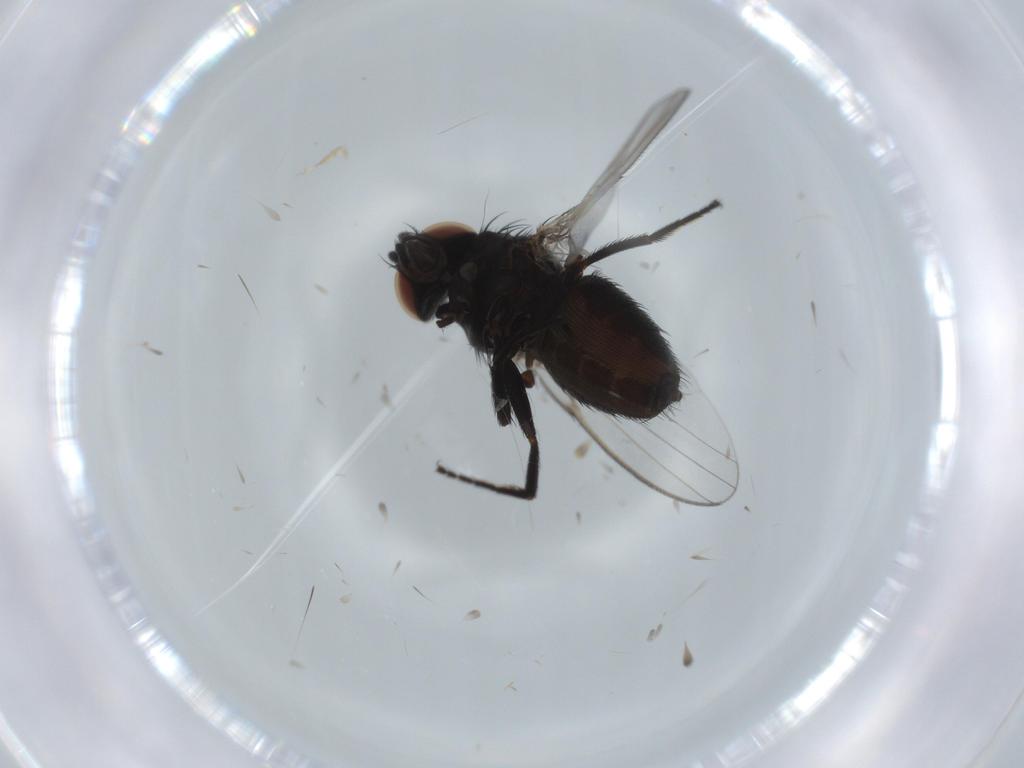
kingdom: Animalia
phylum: Arthropoda
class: Insecta
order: Diptera
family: Milichiidae
